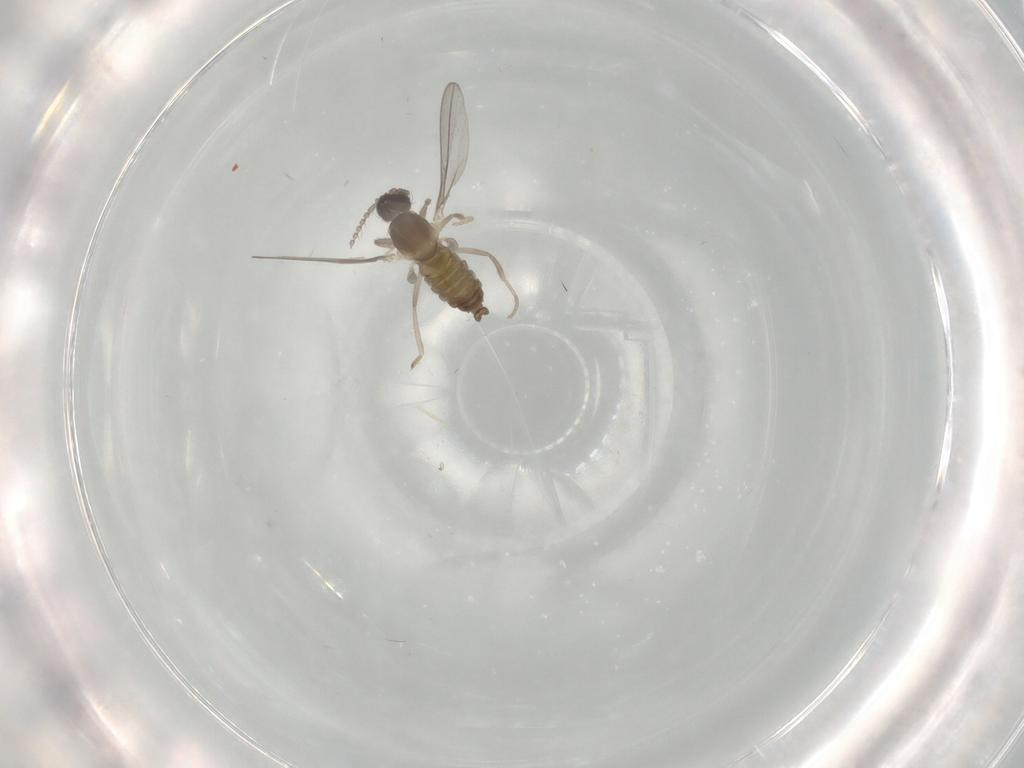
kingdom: Animalia
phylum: Arthropoda
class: Insecta
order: Diptera
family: Cecidomyiidae
